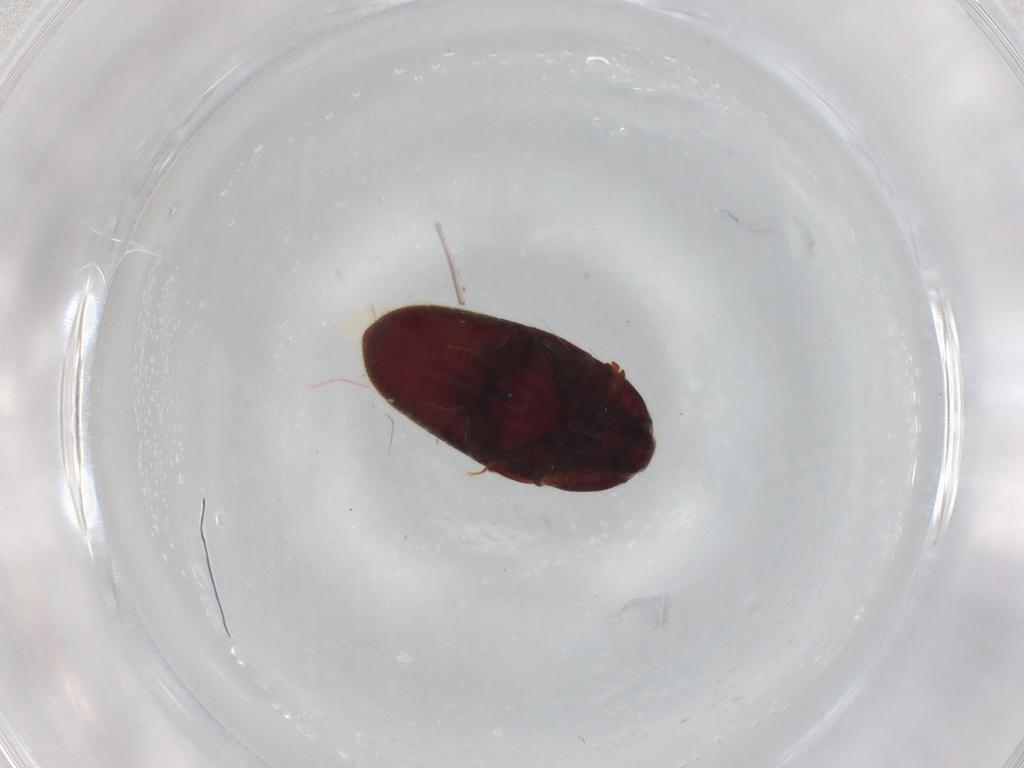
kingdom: Animalia
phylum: Arthropoda
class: Insecta
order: Coleoptera
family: Throscidae
